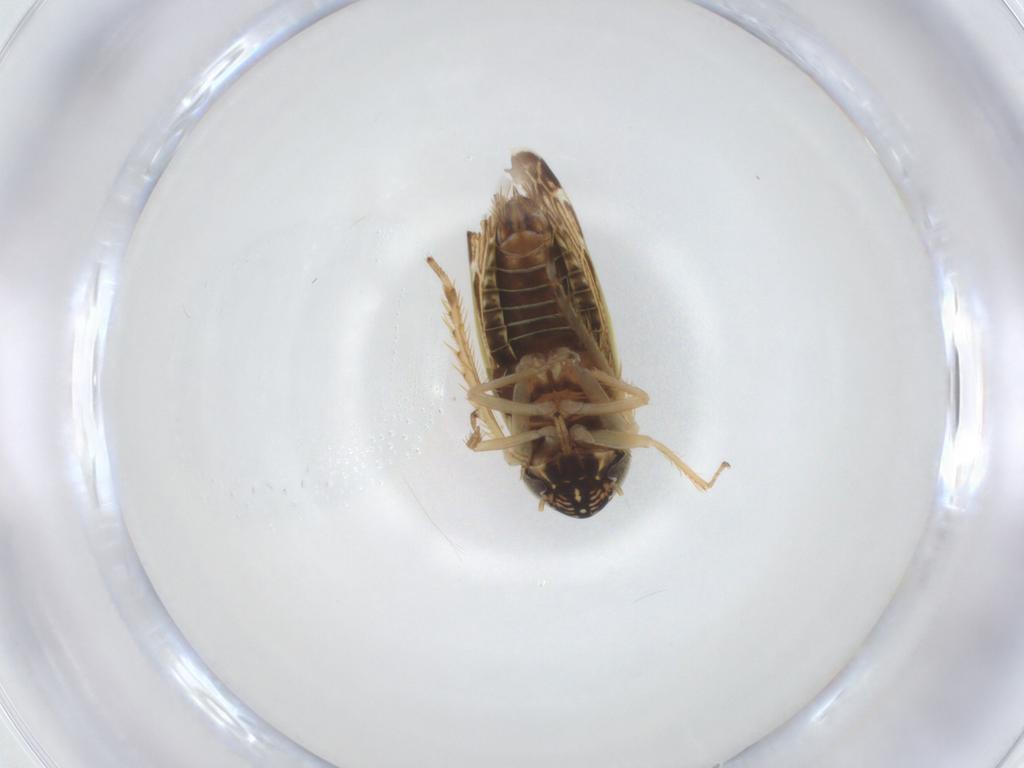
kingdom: Animalia
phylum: Arthropoda
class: Insecta
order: Hemiptera
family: Cicadellidae
